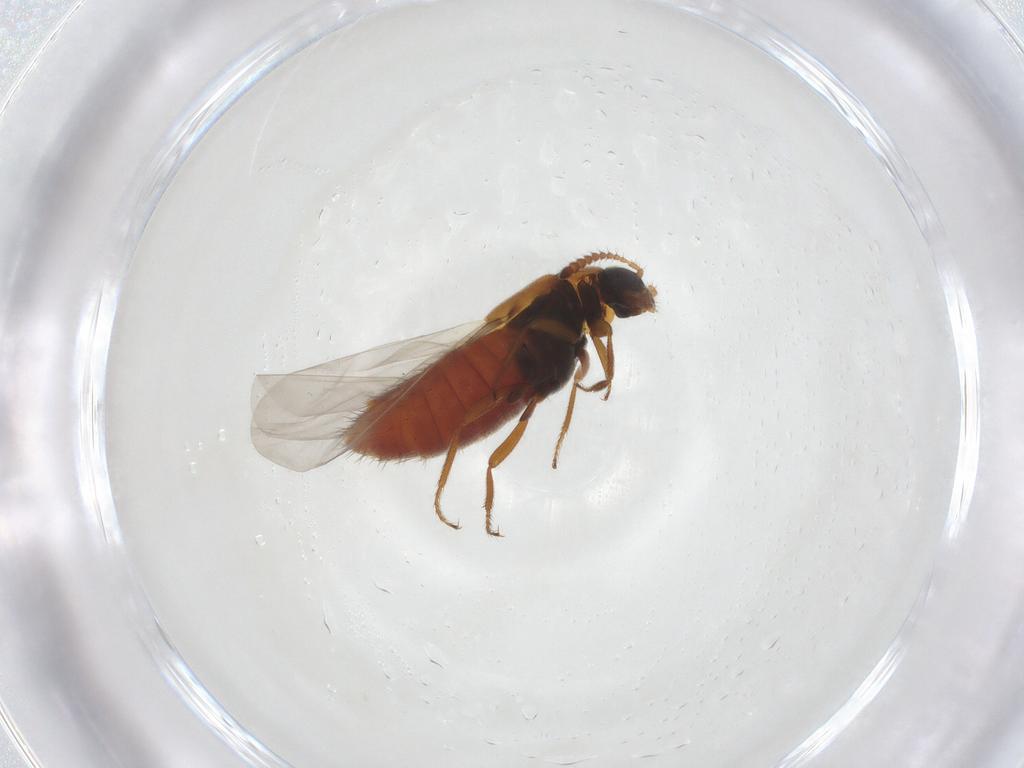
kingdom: Animalia
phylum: Arthropoda
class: Insecta
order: Coleoptera
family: Staphylinidae
